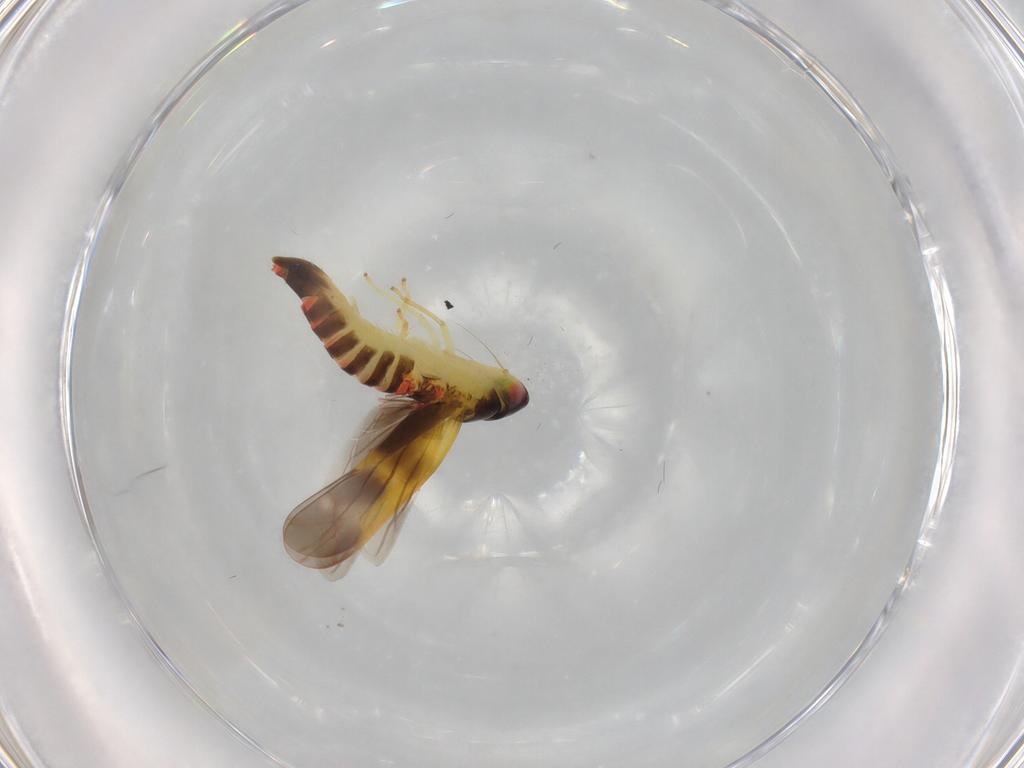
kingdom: Animalia
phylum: Arthropoda
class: Insecta
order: Hemiptera
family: Cicadellidae
